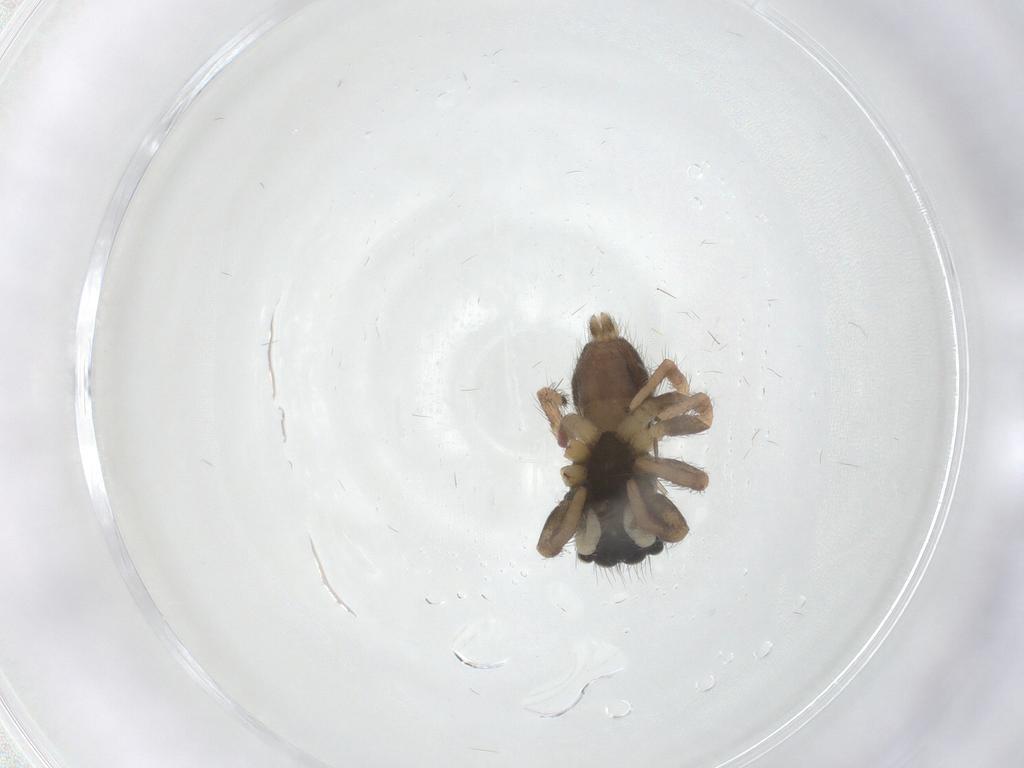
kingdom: Animalia
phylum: Arthropoda
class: Arachnida
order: Araneae
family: Salticidae
